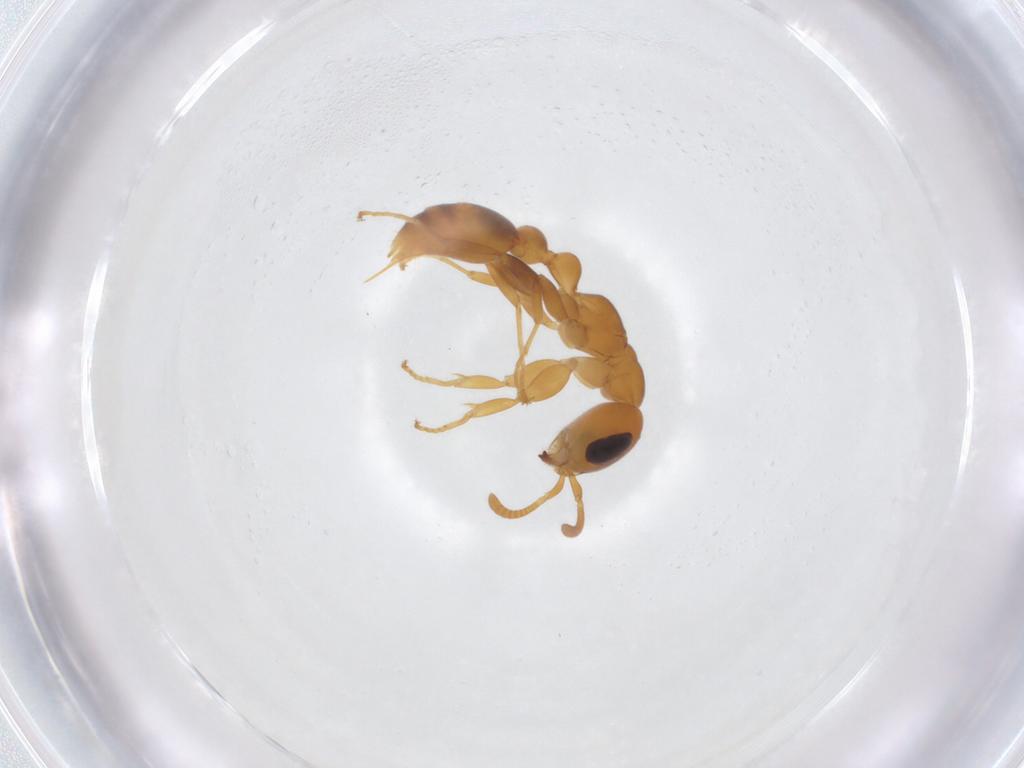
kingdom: Animalia
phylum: Arthropoda
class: Insecta
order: Hymenoptera
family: Formicidae
